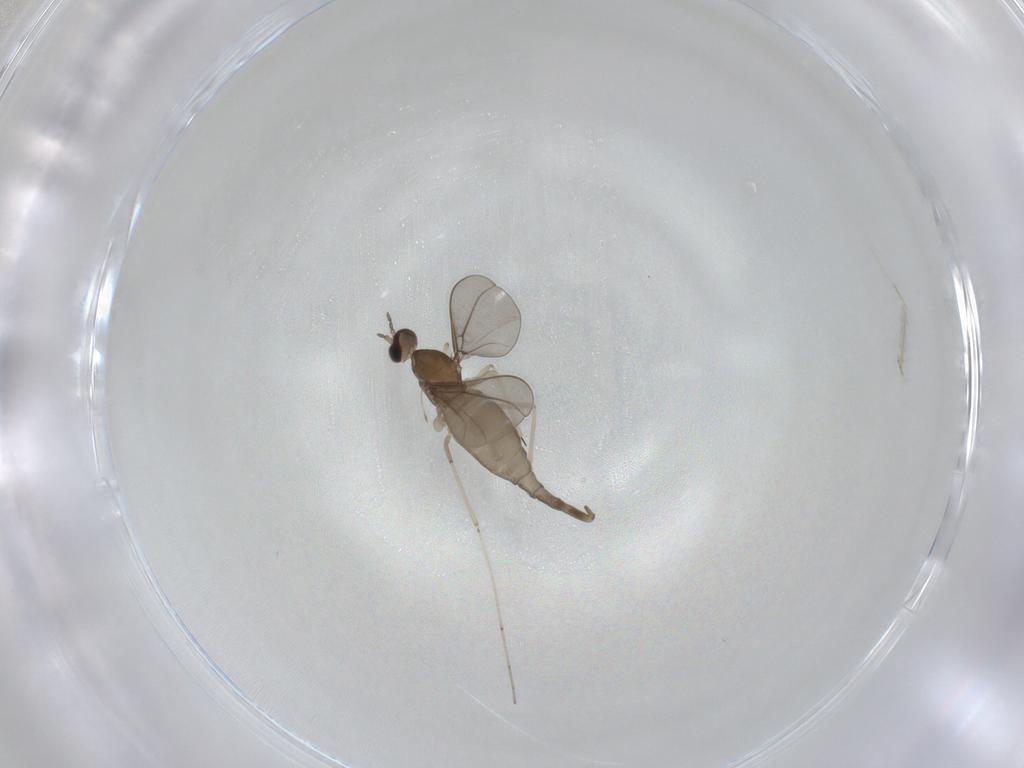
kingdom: Animalia
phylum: Arthropoda
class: Insecta
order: Diptera
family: Cecidomyiidae
